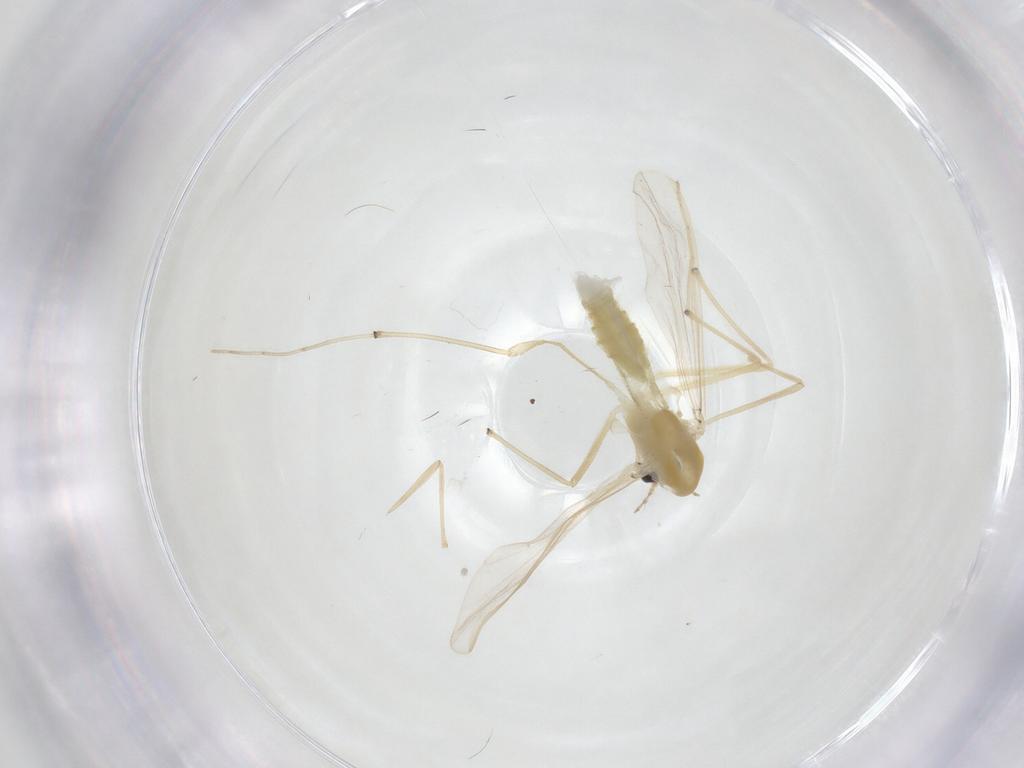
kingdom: Animalia
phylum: Arthropoda
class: Insecta
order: Diptera
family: Chironomidae
